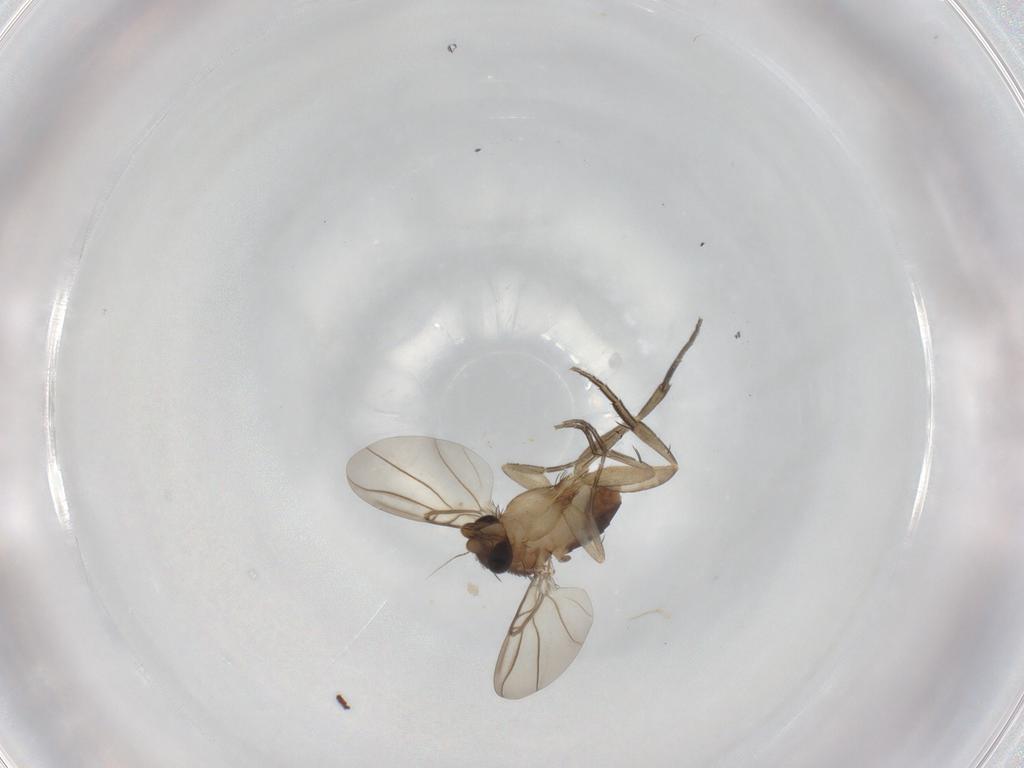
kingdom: Animalia
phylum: Arthropoda
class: Insecta
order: Diptera
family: Phoridae
